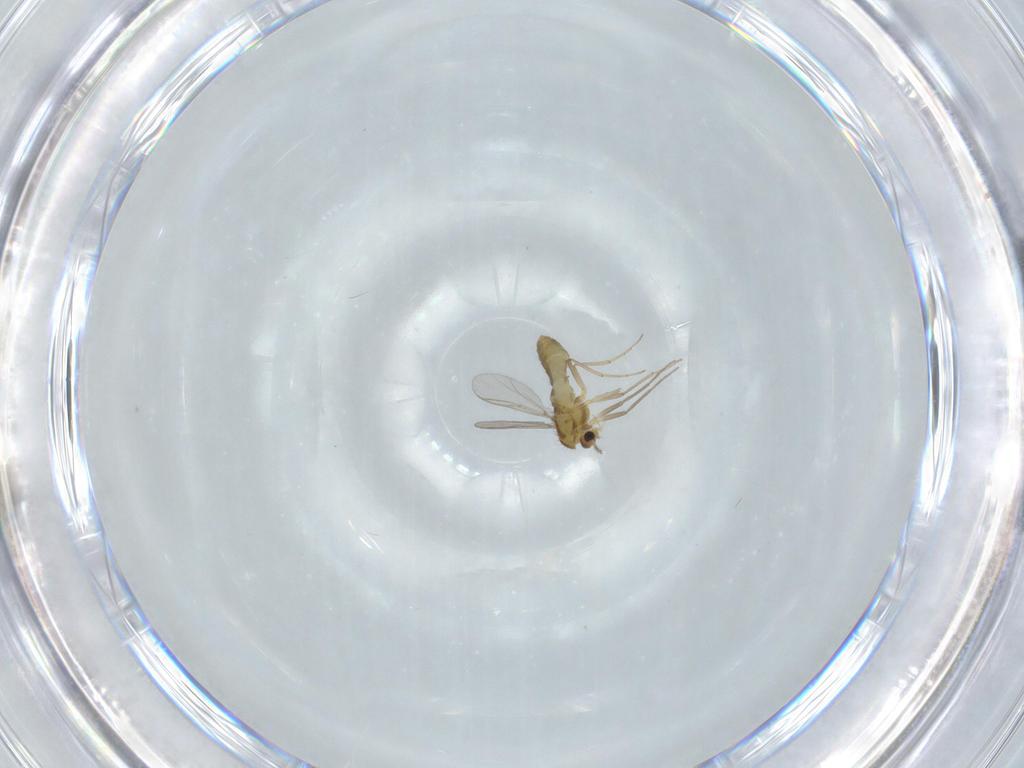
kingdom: Animalia
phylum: Arthropoda
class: Insecta
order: Diptera
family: Chironomidae
